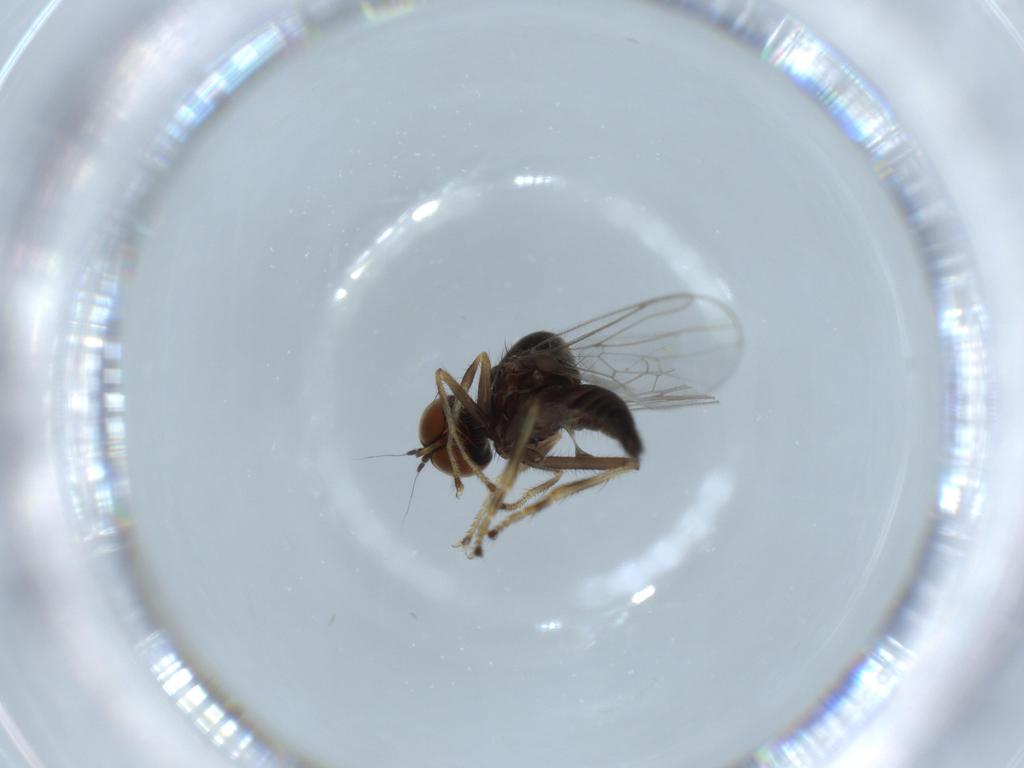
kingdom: Animalia
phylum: Arthropoda
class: Insecta
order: Diptera
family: Hybotidae
